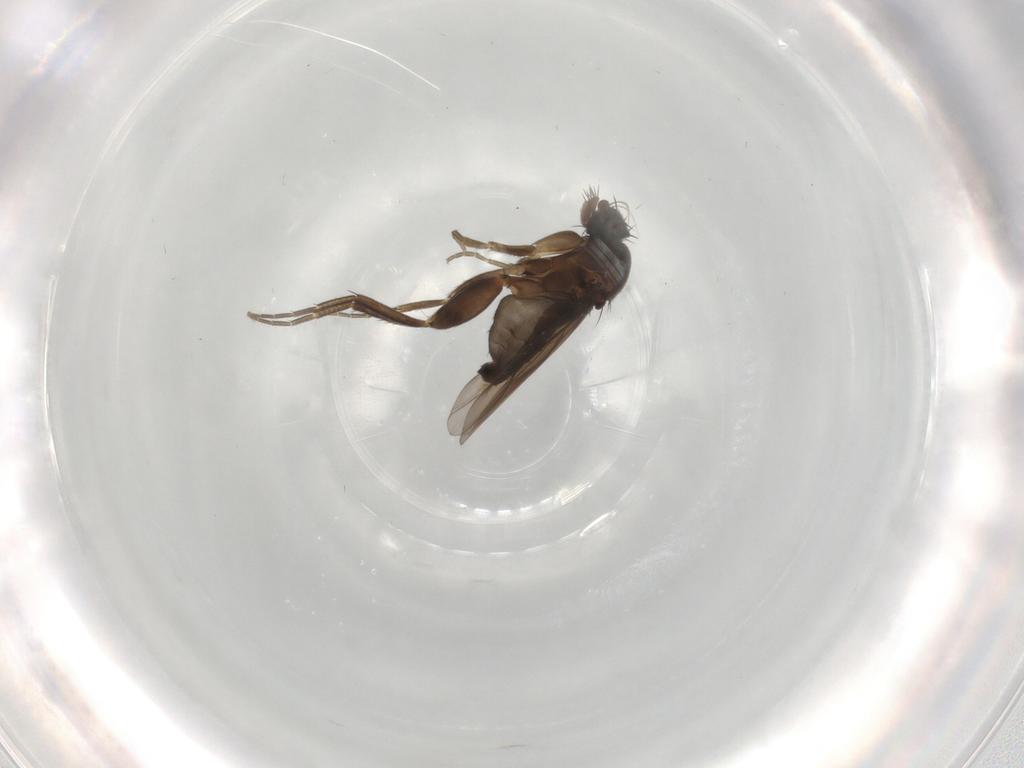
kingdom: Animalia
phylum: Arthropoda
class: Insecta
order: Diptera
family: Phoridae
